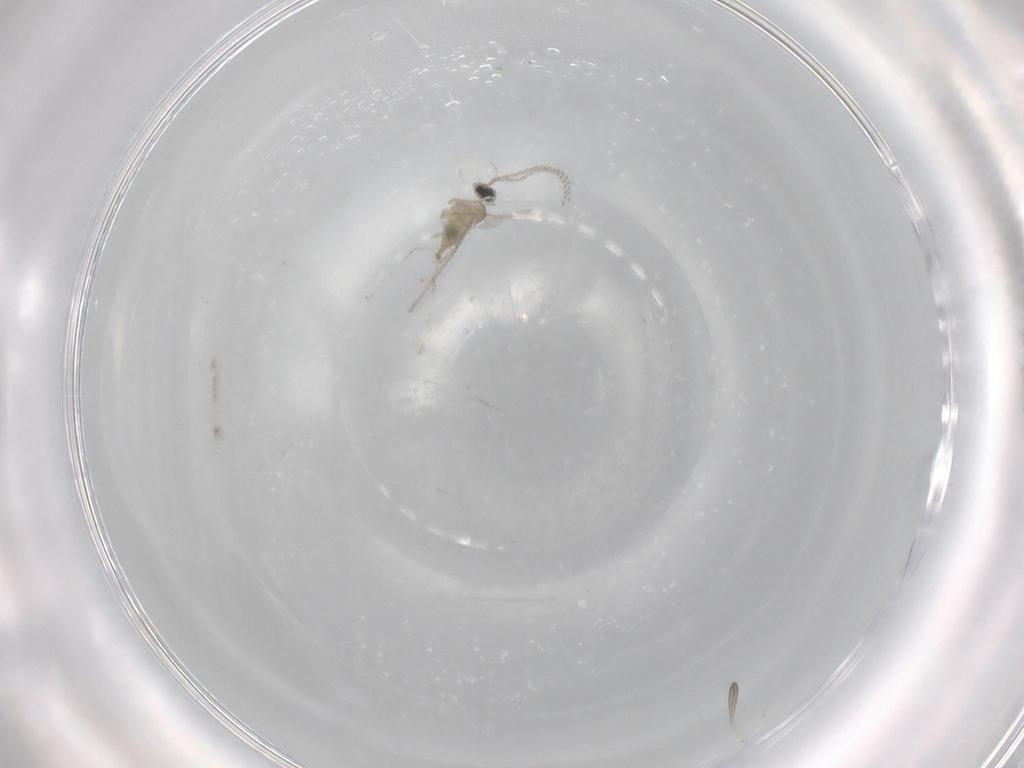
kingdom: Animalia
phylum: Arthropoda
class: Insecta
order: Diptera
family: Cecidomyiidae
